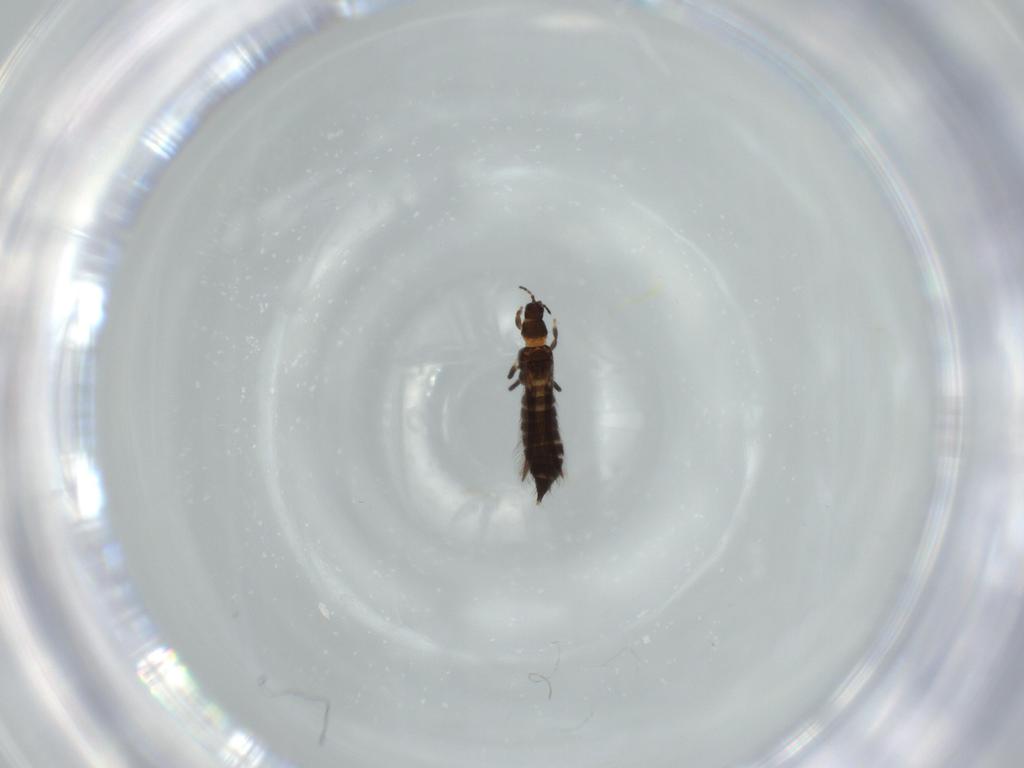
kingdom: Animalia
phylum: Arthropoda
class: Insecta
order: Thysanoptera
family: Thripidae
